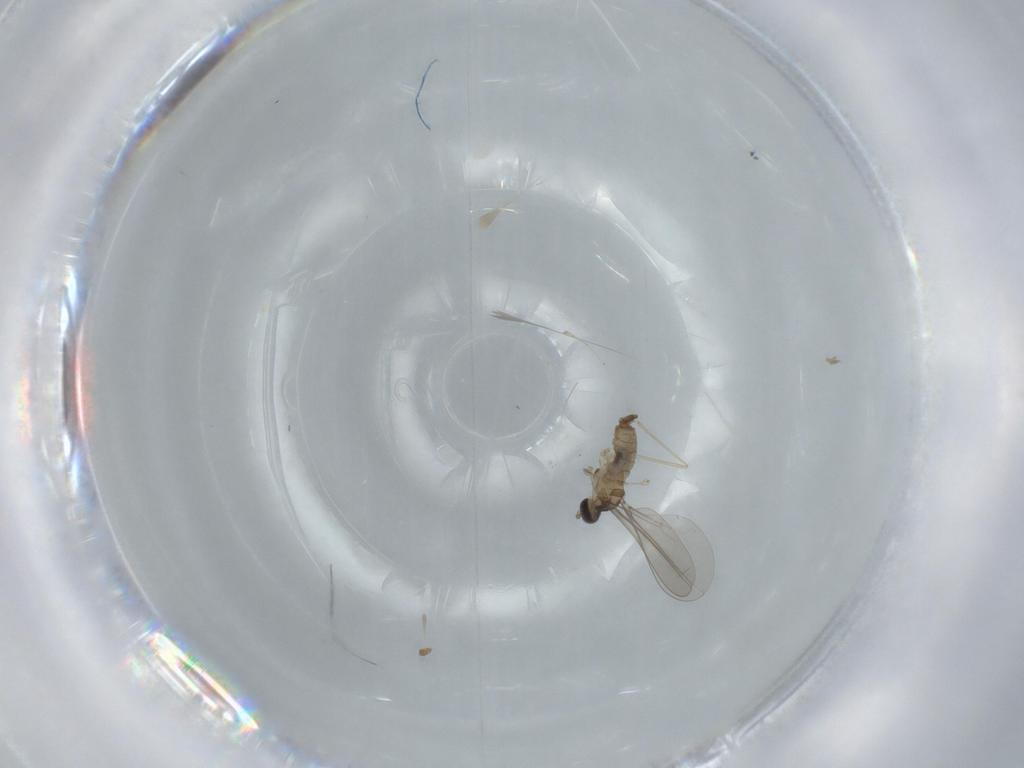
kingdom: Animalia
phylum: Arthropoda
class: Insecta
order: Diptera
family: Cecidomyiidae
